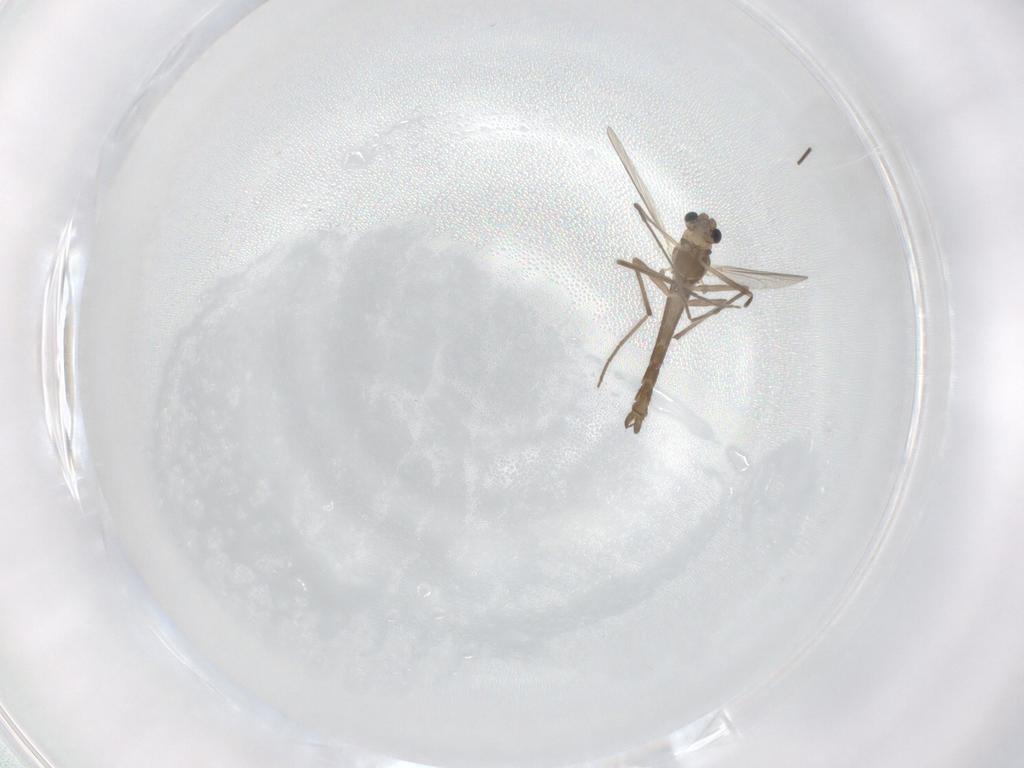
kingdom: Animalia
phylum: Arthropoda
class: Insecta
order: Diptera
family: Chironomidae
